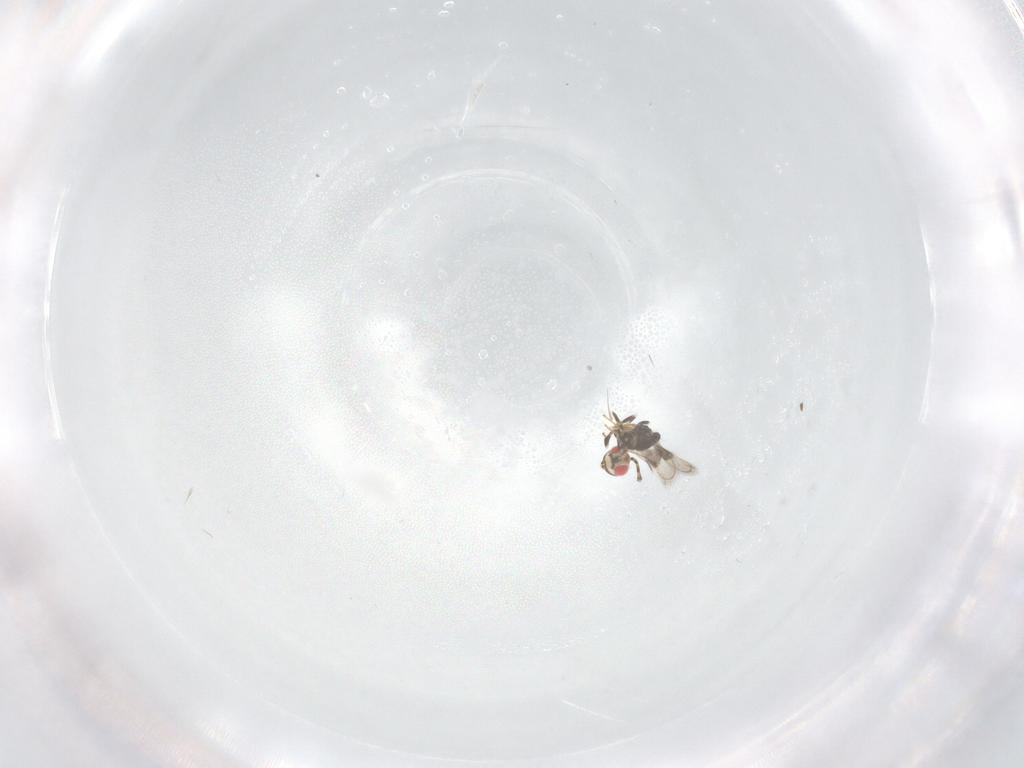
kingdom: Animalia
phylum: Arthropoda
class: Insecta
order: Hymenoptera
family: Azotidae
